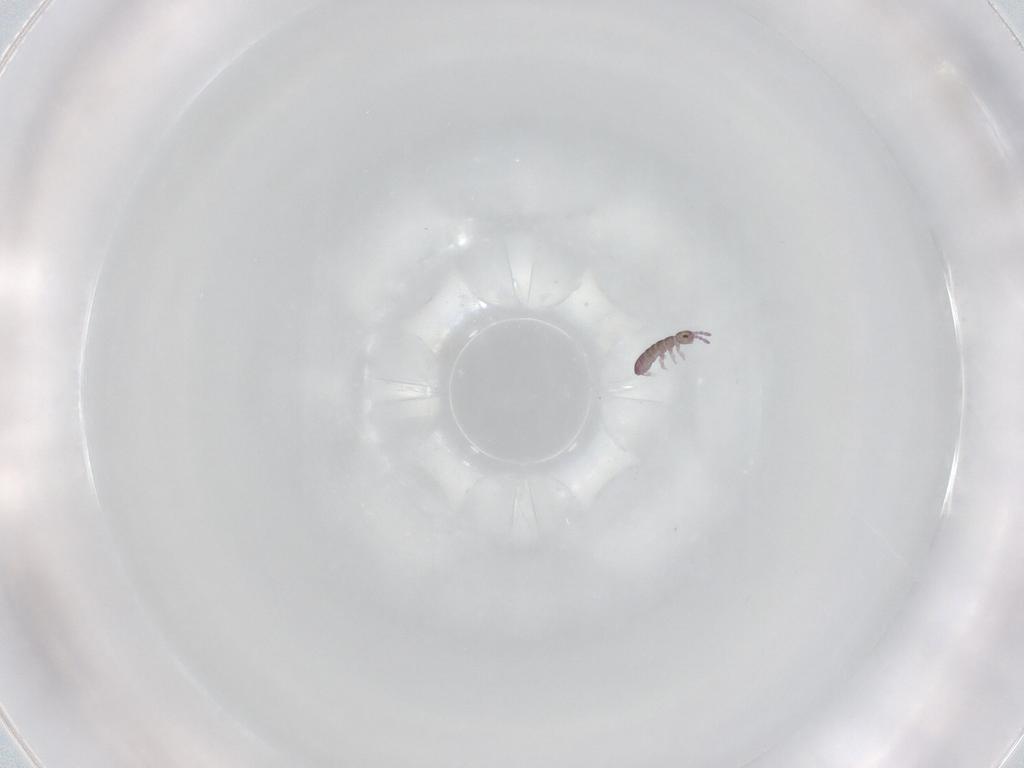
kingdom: Animalia
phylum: Arthropoda
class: Collembola
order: Entomobryomorpha
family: Isotomidae
